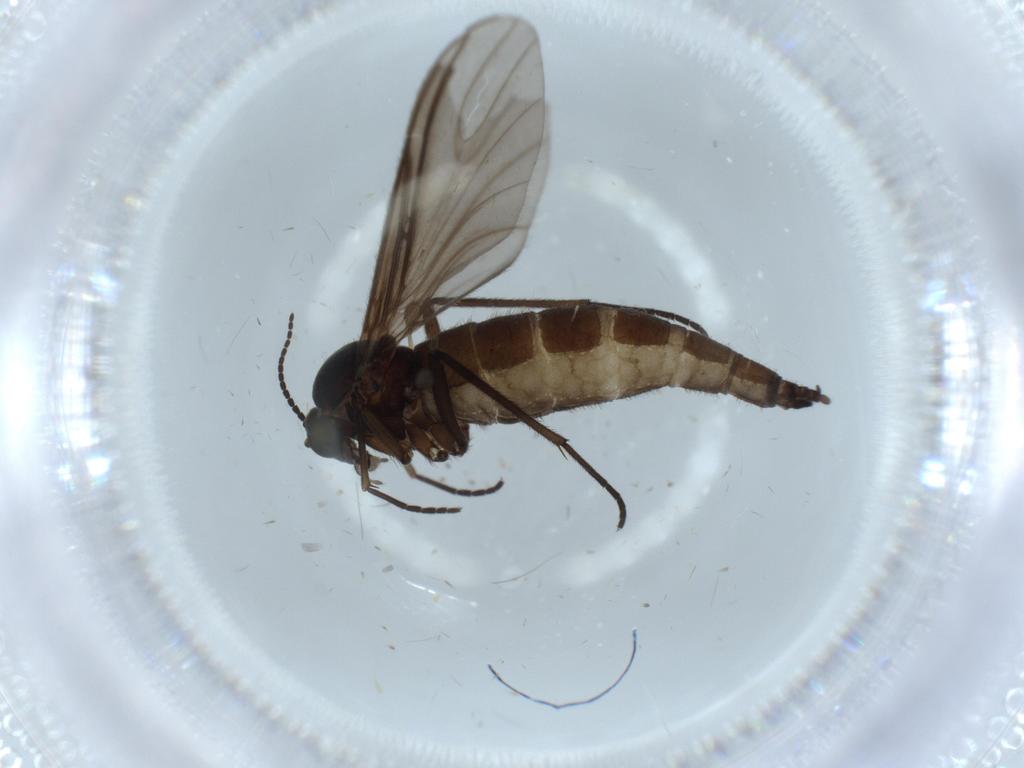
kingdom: Animalia
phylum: Arthropoda
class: Insecta
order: Diptera
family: Sciaridae
